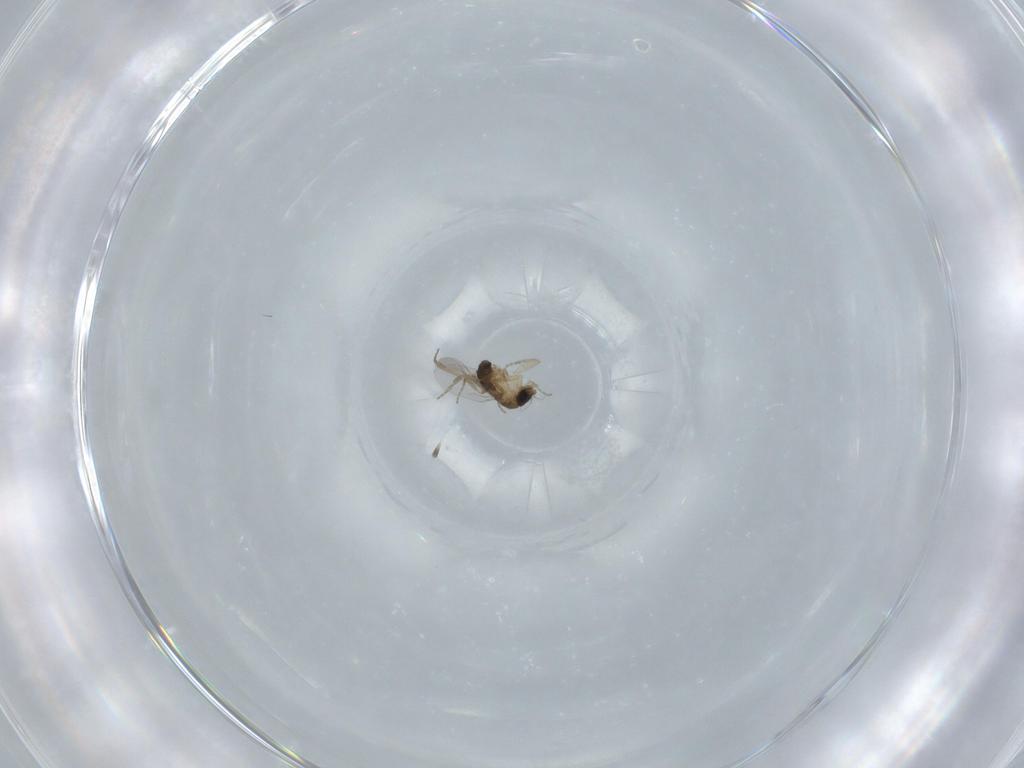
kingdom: Animalia
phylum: Arthropoda
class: Insecta
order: Diptera
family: Phoridae
